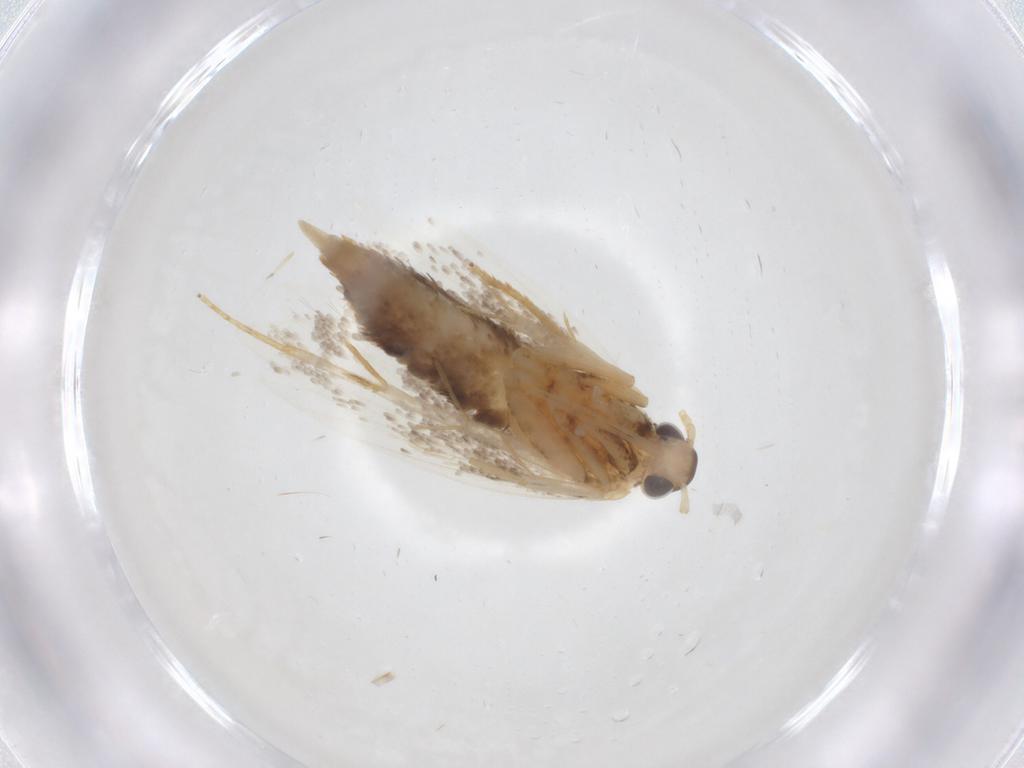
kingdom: Animalia
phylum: Arthropoda
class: Insecta
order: Lepidoptera
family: Lecithoceridae
